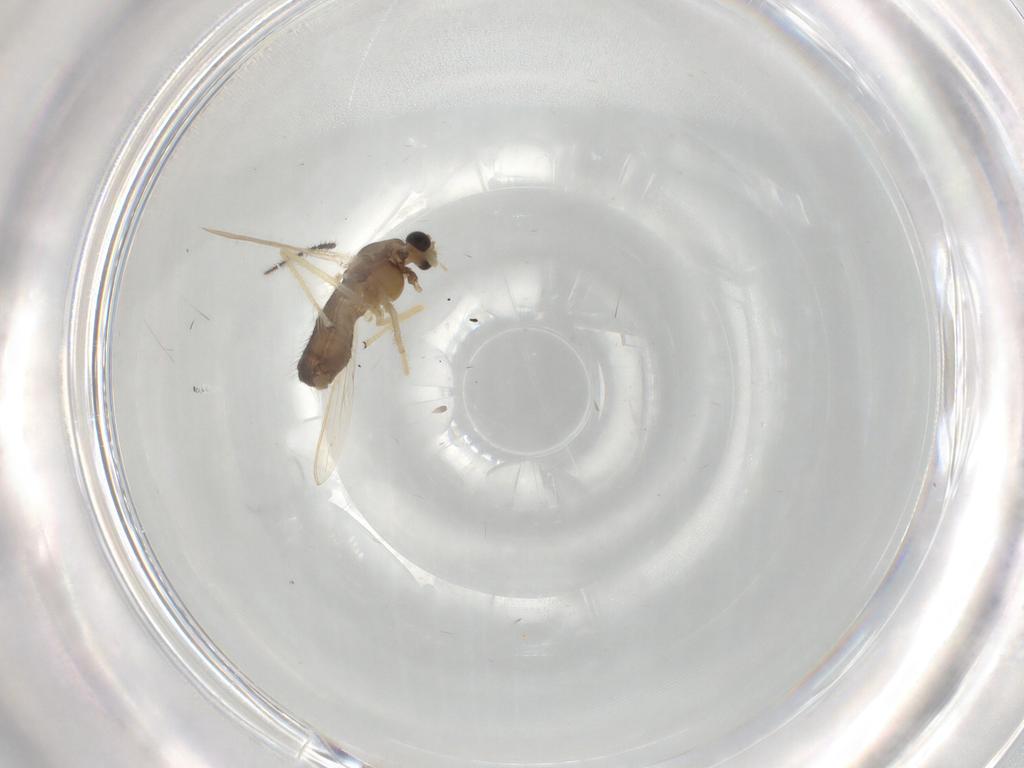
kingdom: Animalia
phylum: Arthropoda
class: Insecta
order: Diptera
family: Chironomidae
